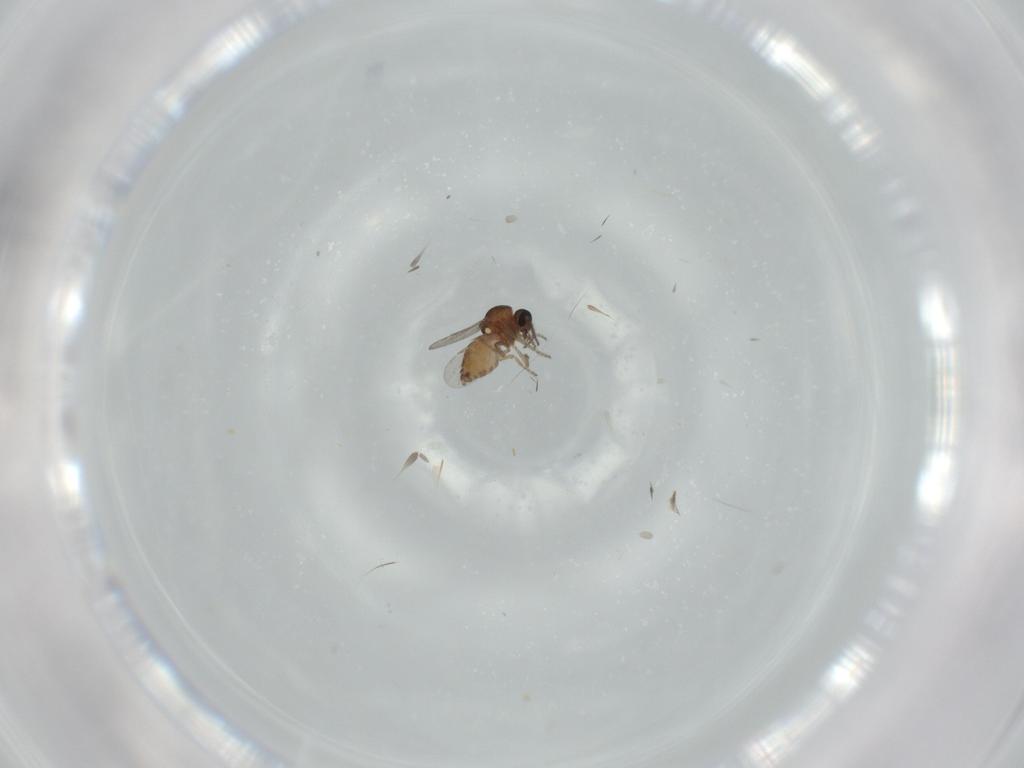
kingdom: Animalia
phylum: Arthropoda
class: Insecta
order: Diptera
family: Ceratopogonidae
